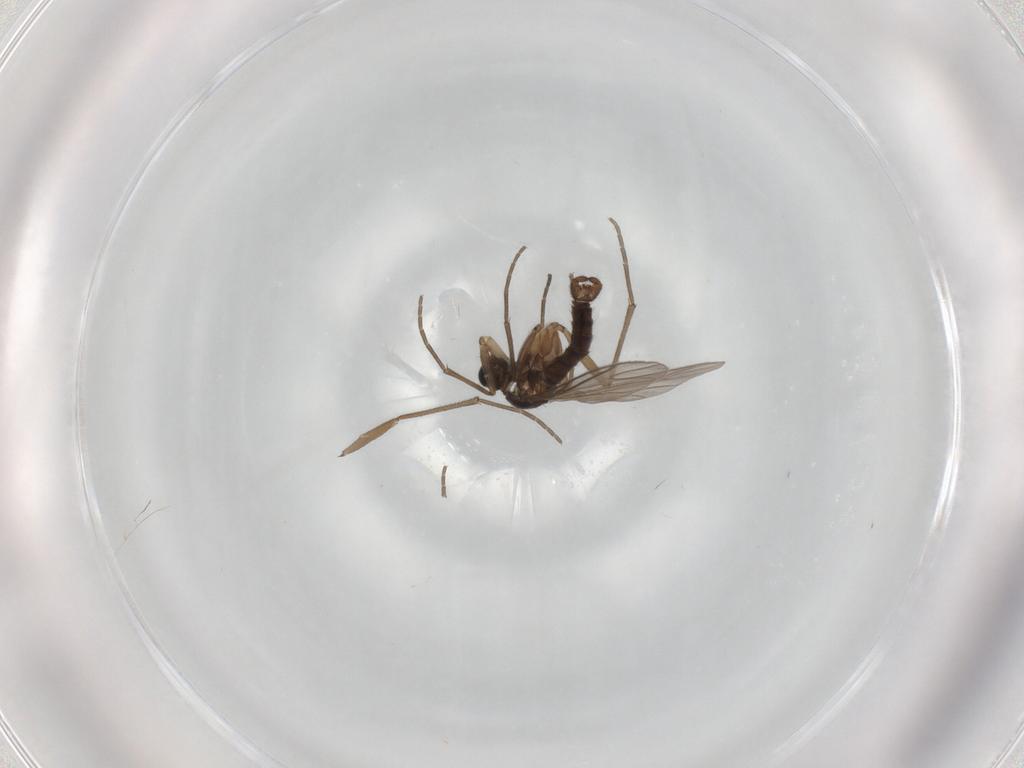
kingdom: Animalia
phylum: Arthropoda
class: Insecta
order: Diptera
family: Sciaridae
